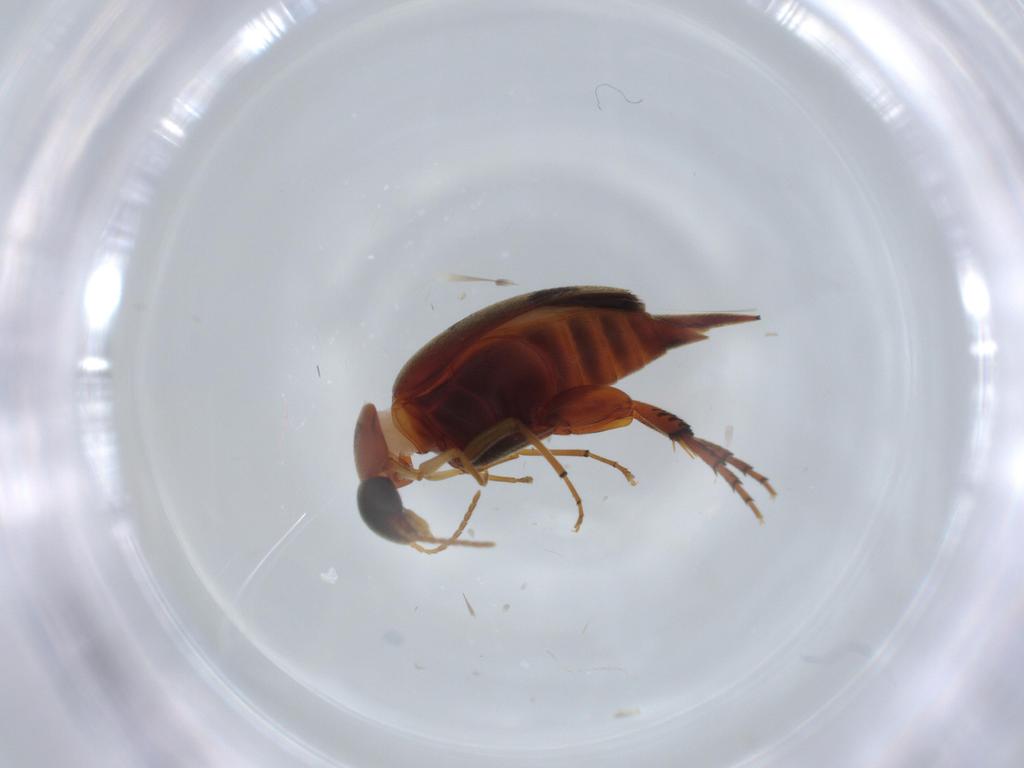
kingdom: Animalia
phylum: Arthropoda
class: Insecta
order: Coleoptera
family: Mordellidae
